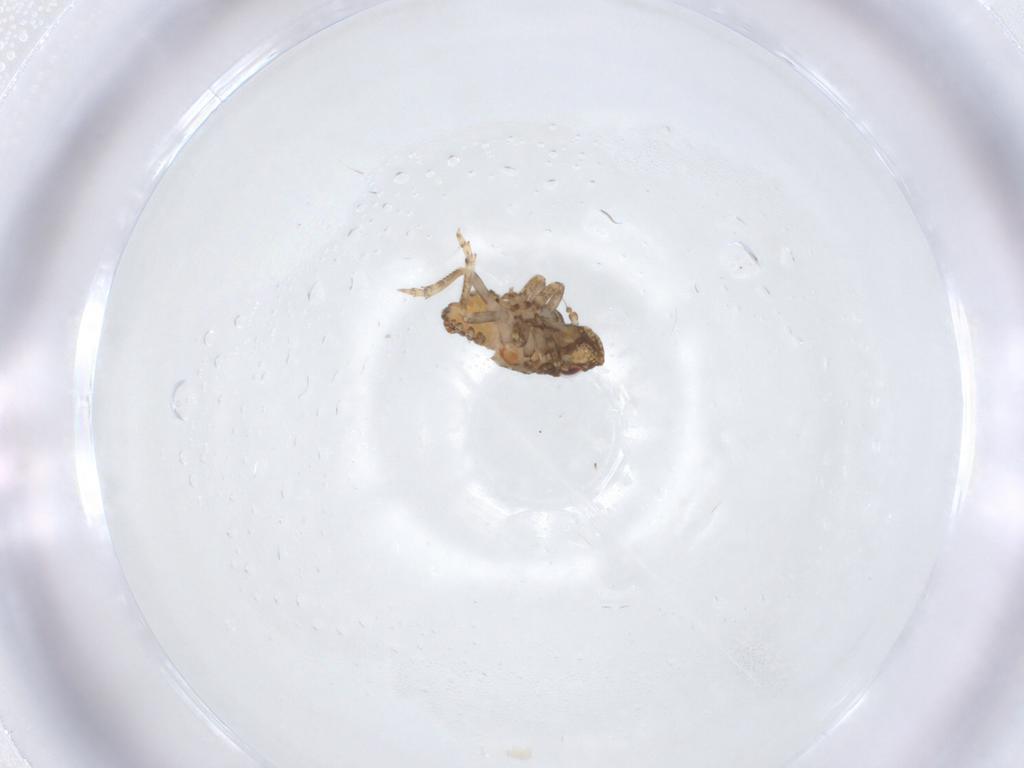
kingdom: Animalia
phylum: Arthropoda
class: Insecta
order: Hemiptera
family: Nogodinidae
